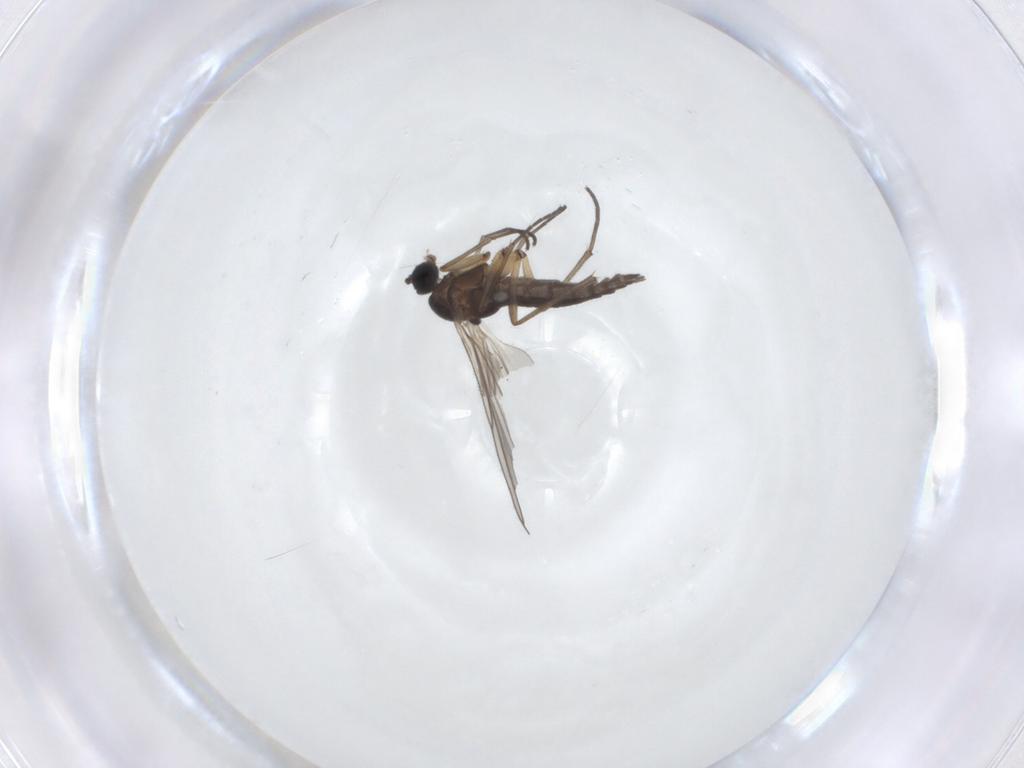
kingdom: Animalia
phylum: Arthropoda
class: Insecta
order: Diptera
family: Sciaridae
